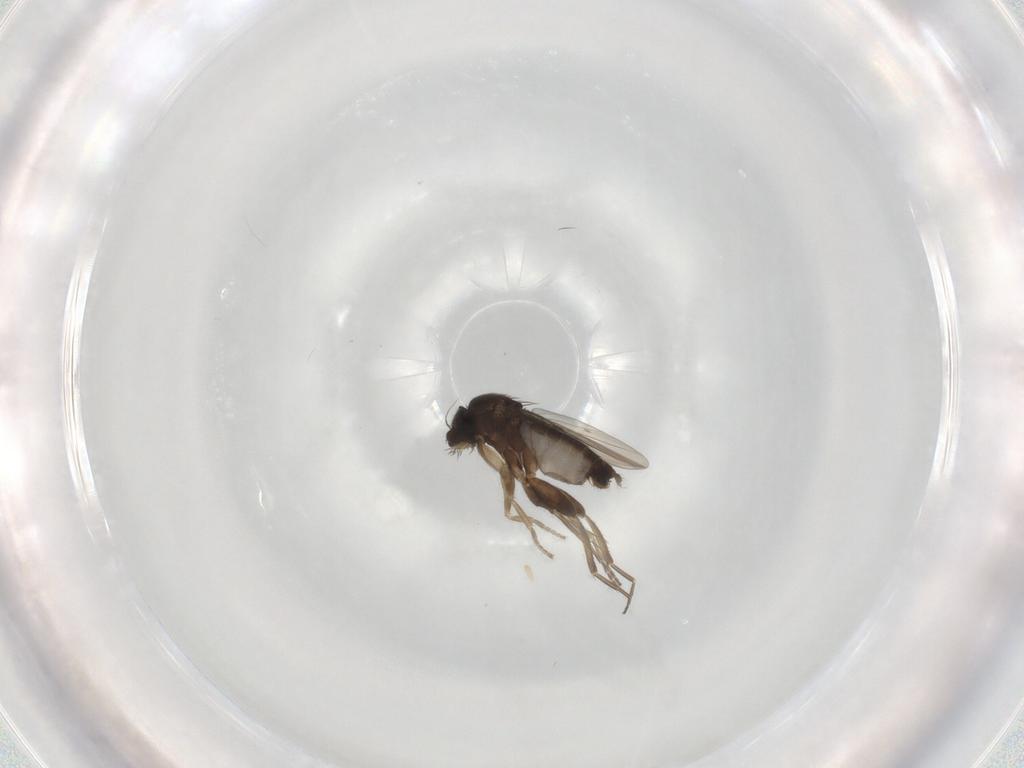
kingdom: Animalia
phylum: Arthropoda
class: Insecta
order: Diptera
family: Phoridae
